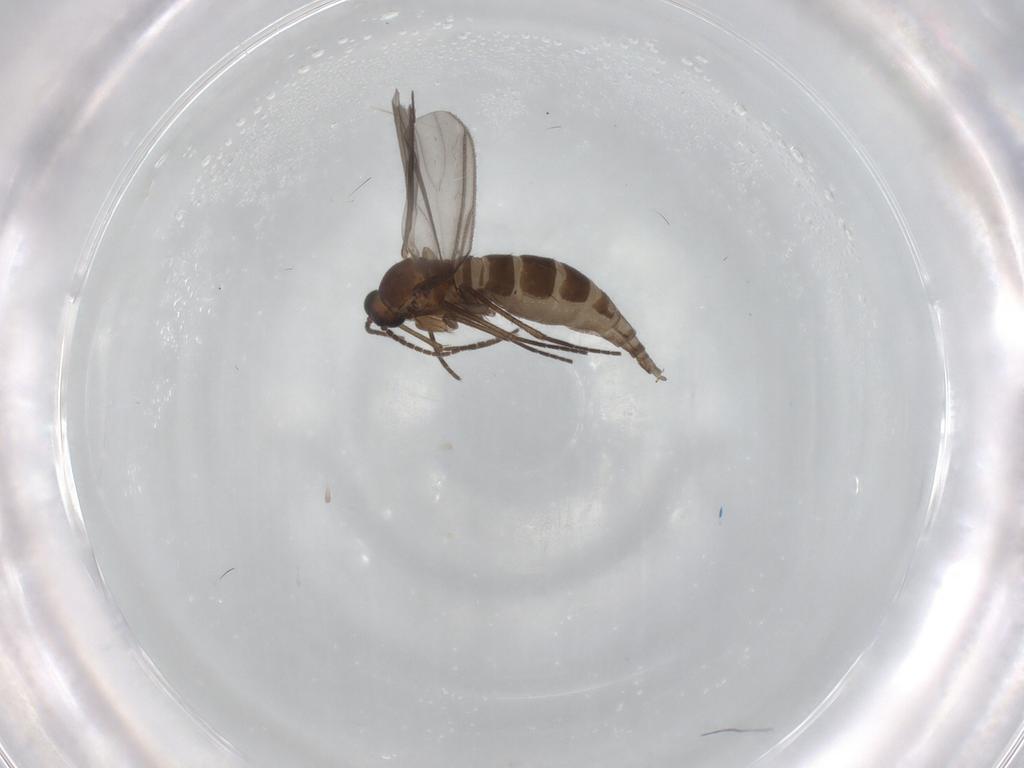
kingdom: Animalia
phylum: Arthropoda
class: Insecta
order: Diptera
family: Sciaridae
